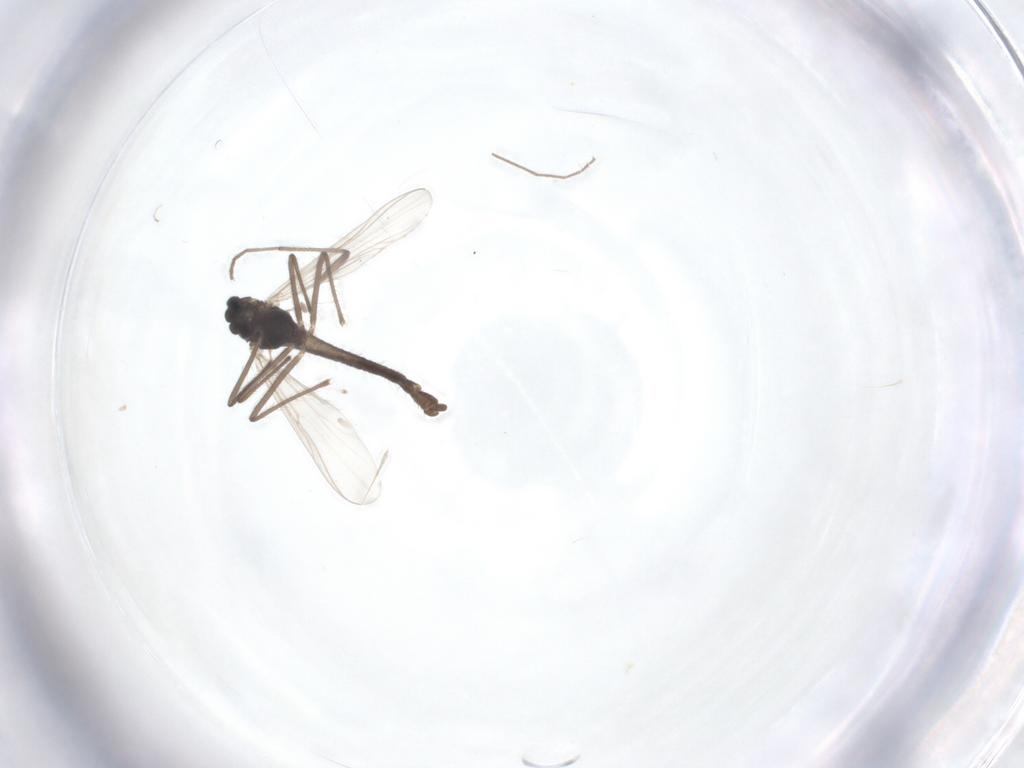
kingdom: Animalia
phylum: Arthropoda
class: Insecta
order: Diptera
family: Chironomidae
